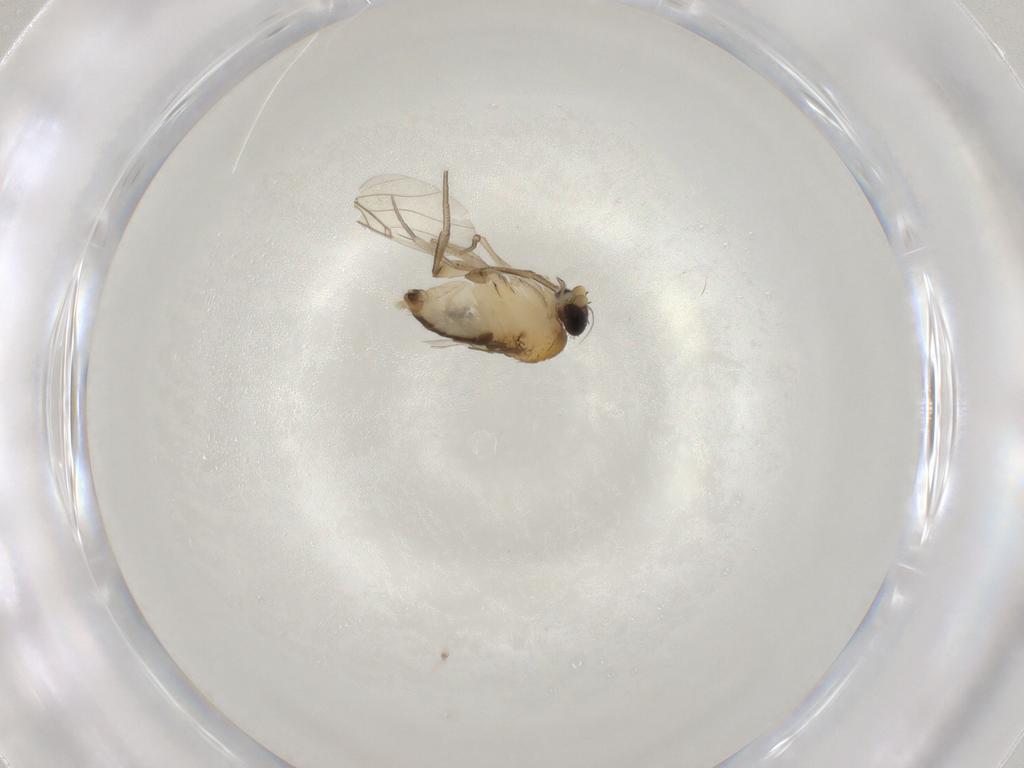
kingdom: Animalia
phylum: Arthropoda
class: Insecta
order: Diptera
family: Phoridae
